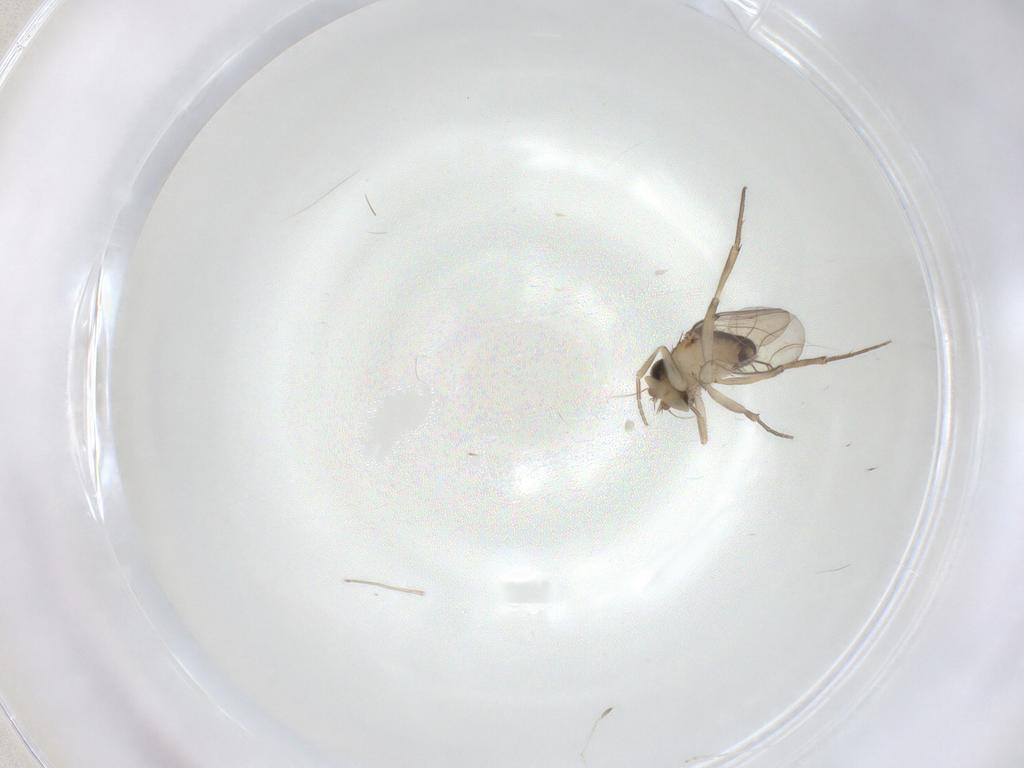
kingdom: Animalia
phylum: Arthropoda
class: Insecta
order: Diptera
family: Phoridae
